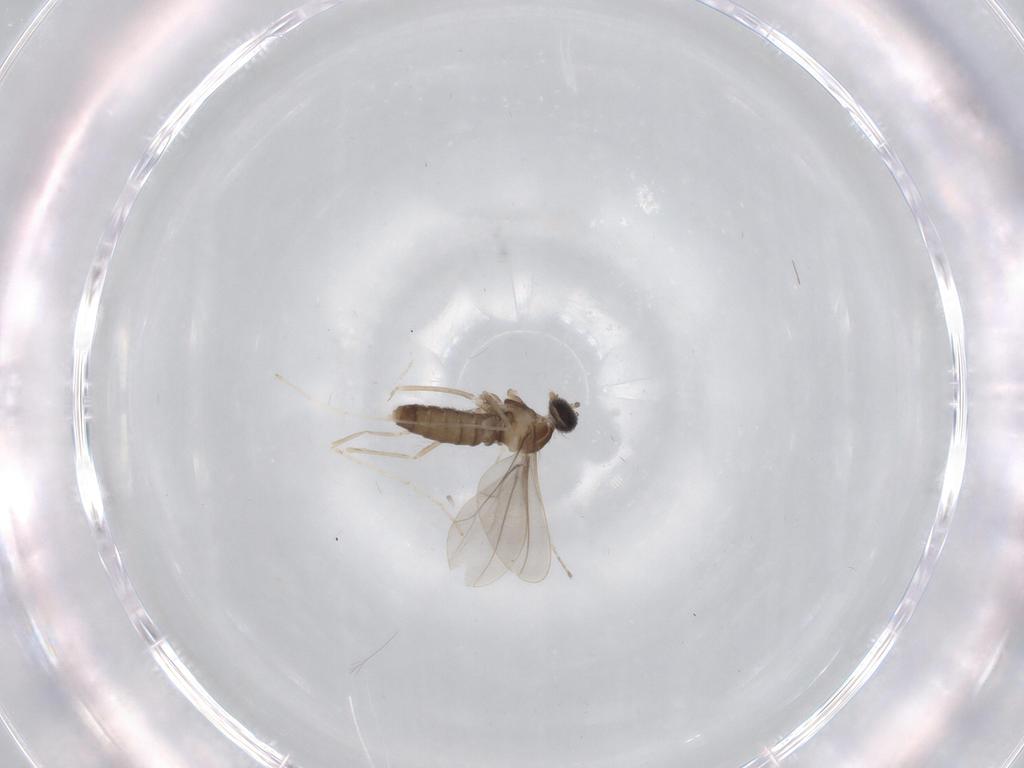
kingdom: Animalia
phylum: Arthropoda
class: Insecta
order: Diptera
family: Cecidomyiidae
